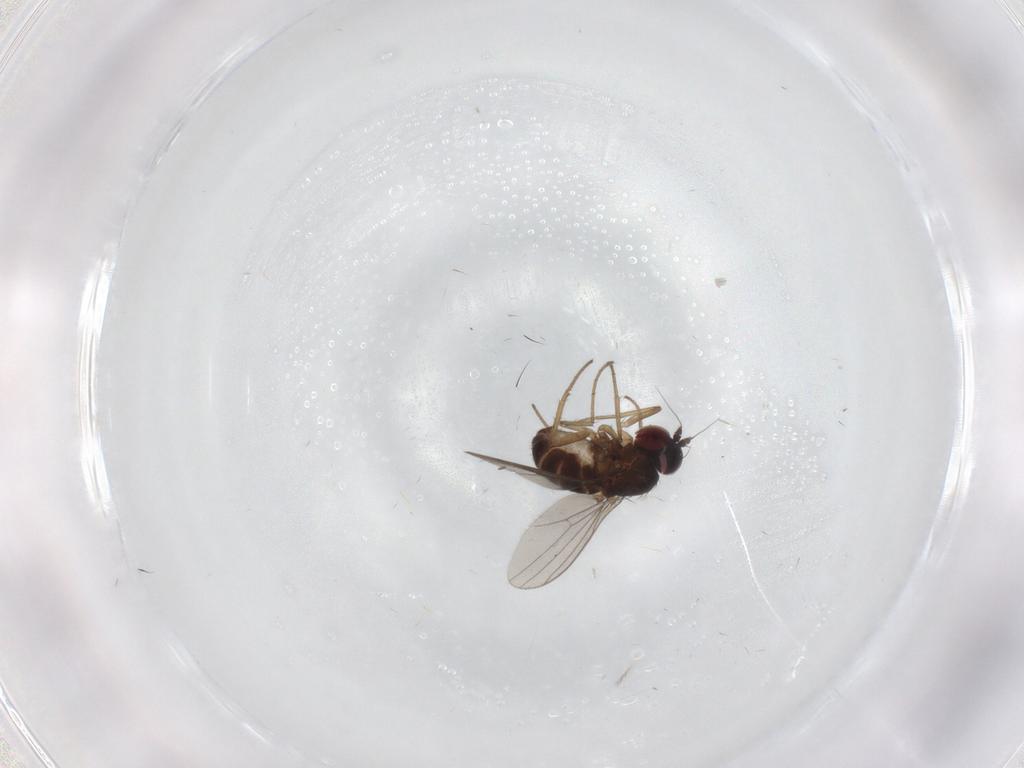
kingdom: Animalia
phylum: Arthropoda
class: Insecta
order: Diptera
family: Dolichopodidae
